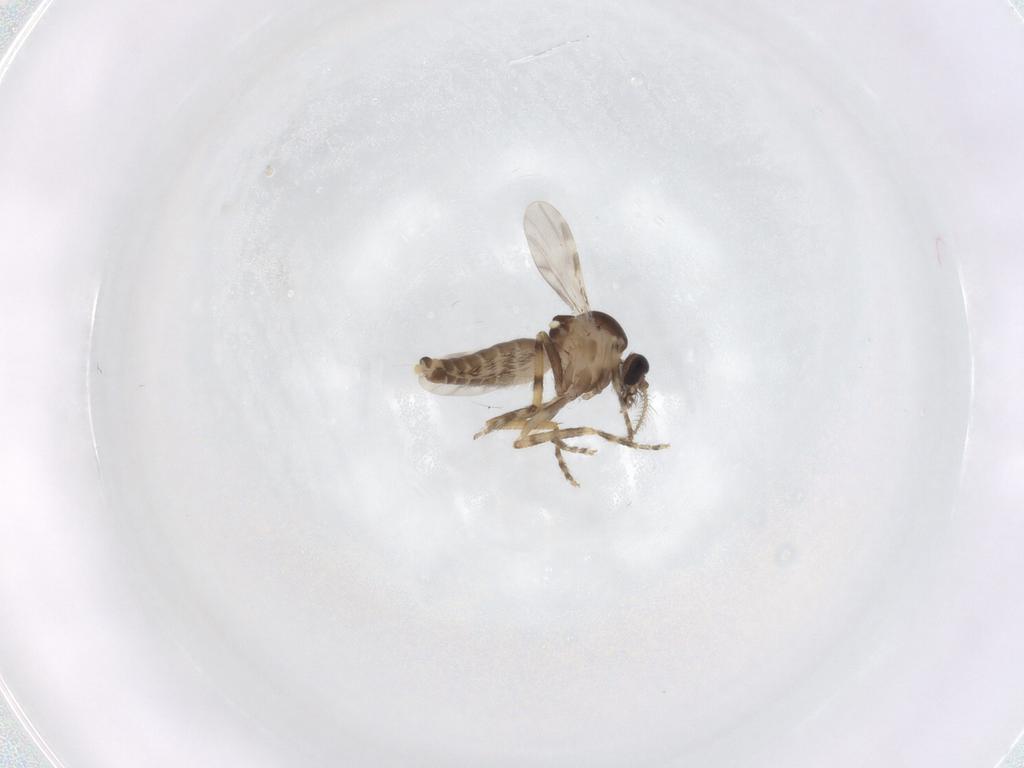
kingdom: Animalia
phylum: Arthropoda
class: Insecta
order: Diptera
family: Ceratopogonidae
